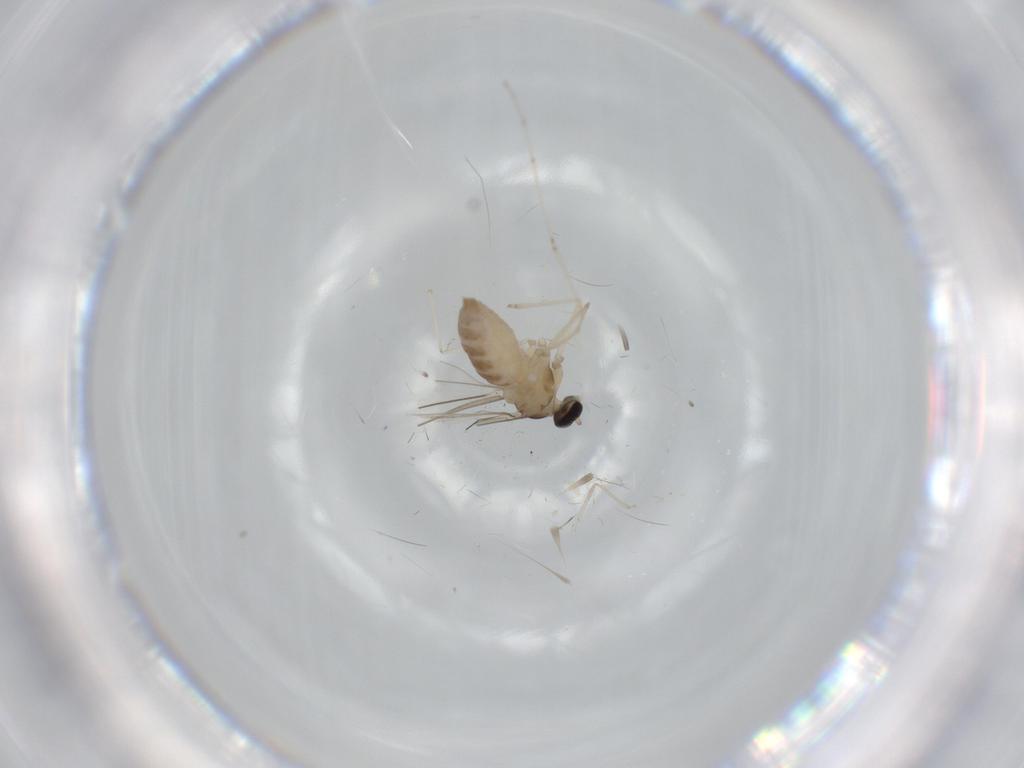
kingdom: Animalia
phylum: Arthropoda
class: Insecta
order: Diptera
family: Cecidomyiidae
